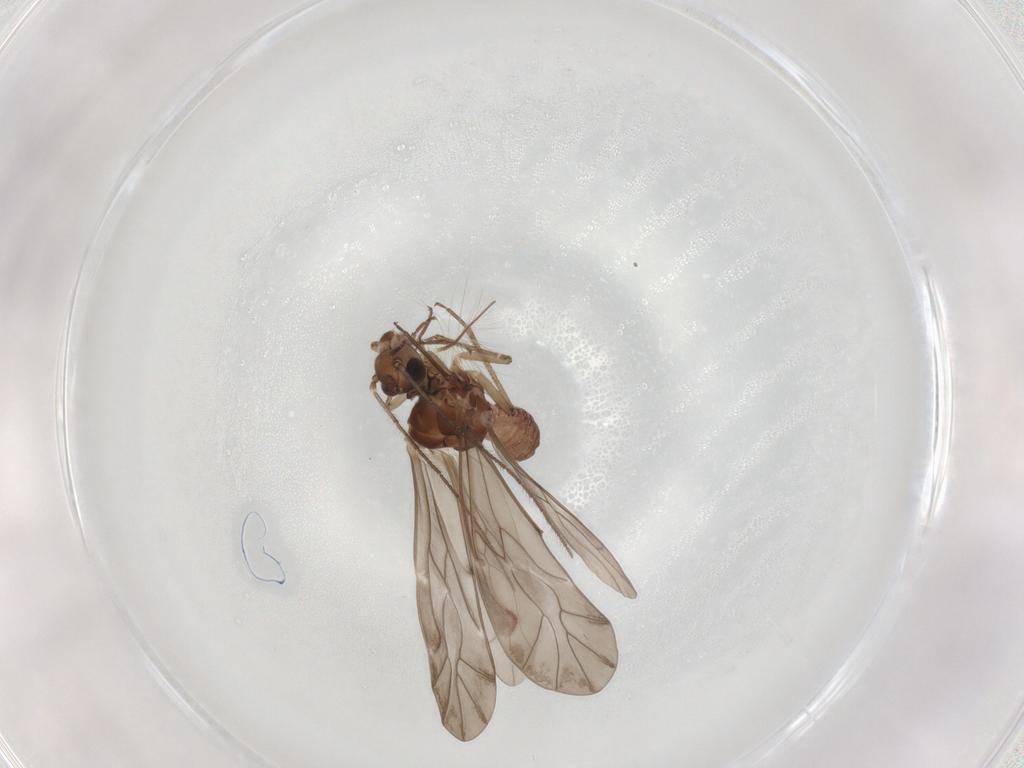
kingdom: Animalia
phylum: Arthropoda
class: Insecta
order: Psocodea
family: Peripsocidae
